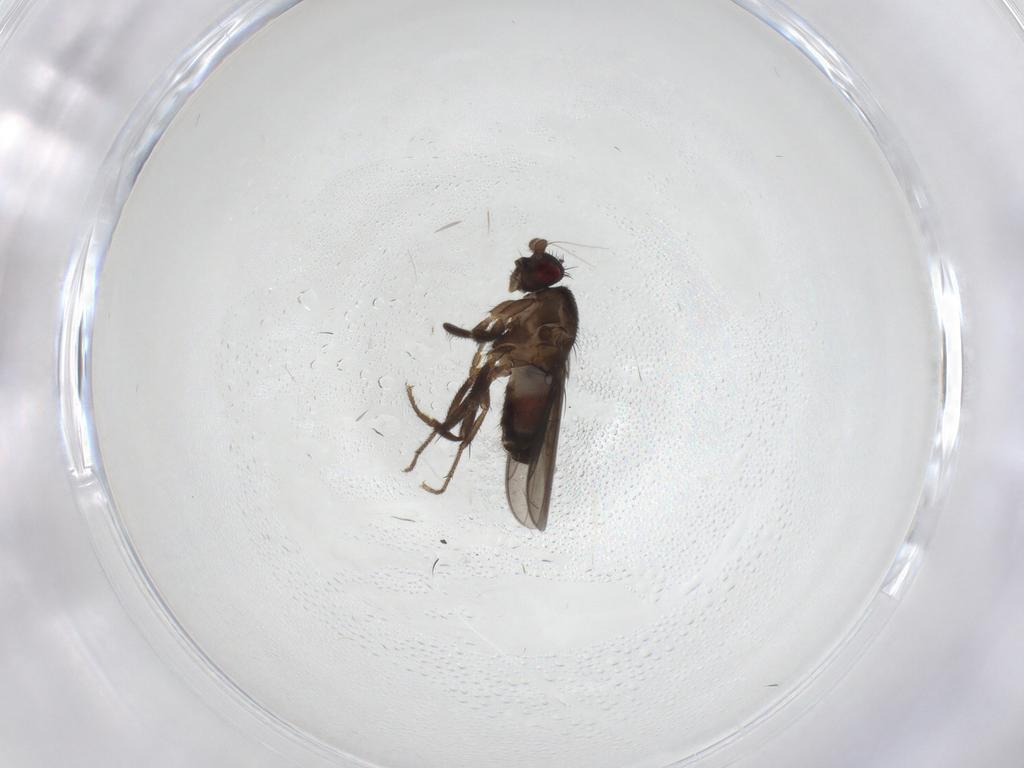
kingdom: Animalia
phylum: Arthropoda
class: Insecta
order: Diptera
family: Sphaeroceridae
